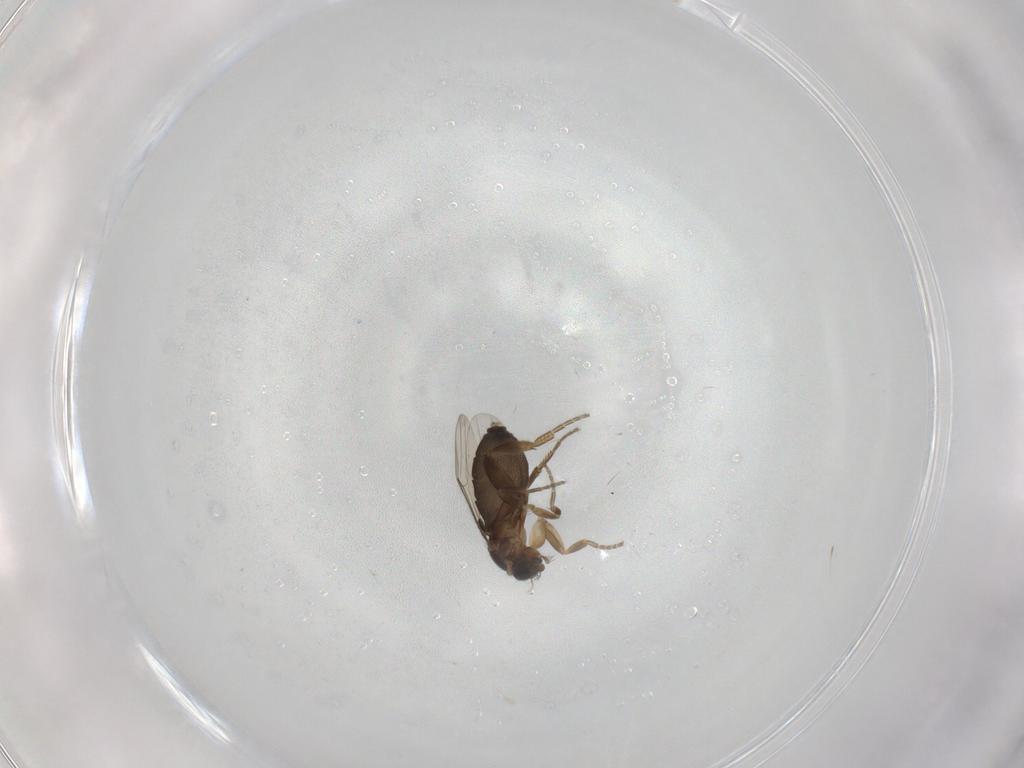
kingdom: Animalia
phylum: Arthropoda
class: Insecta
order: Diptera
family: Phoridae
